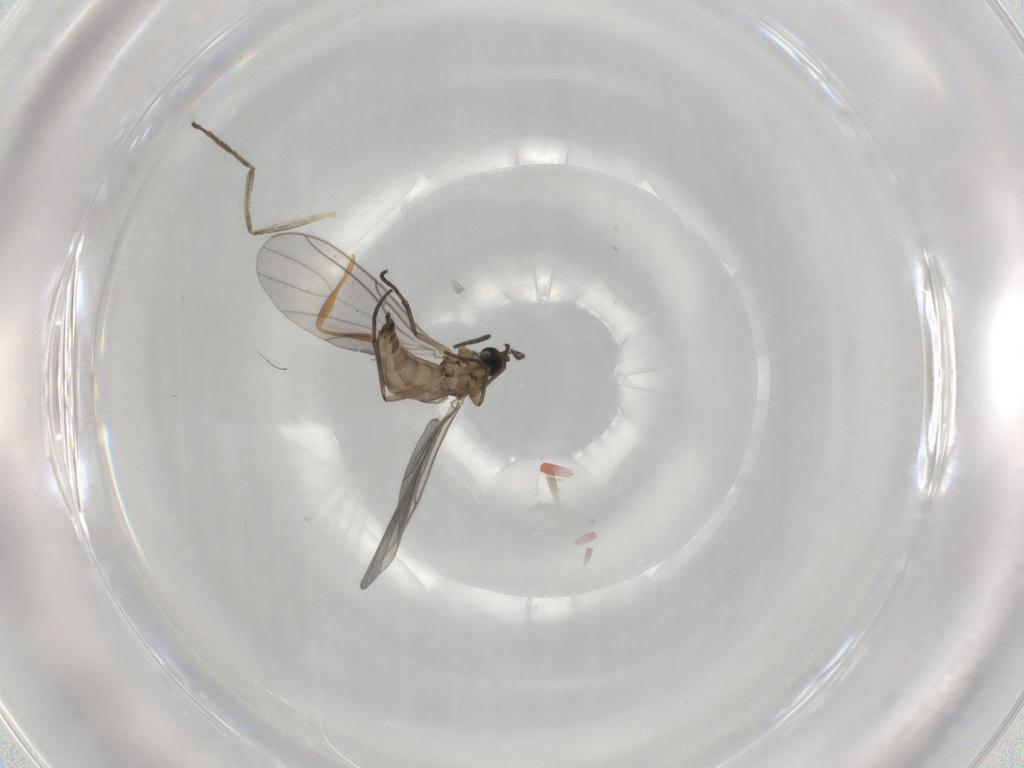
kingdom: Animalia
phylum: Arthropoda
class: Insecta
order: Diptera
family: Sciaridae
